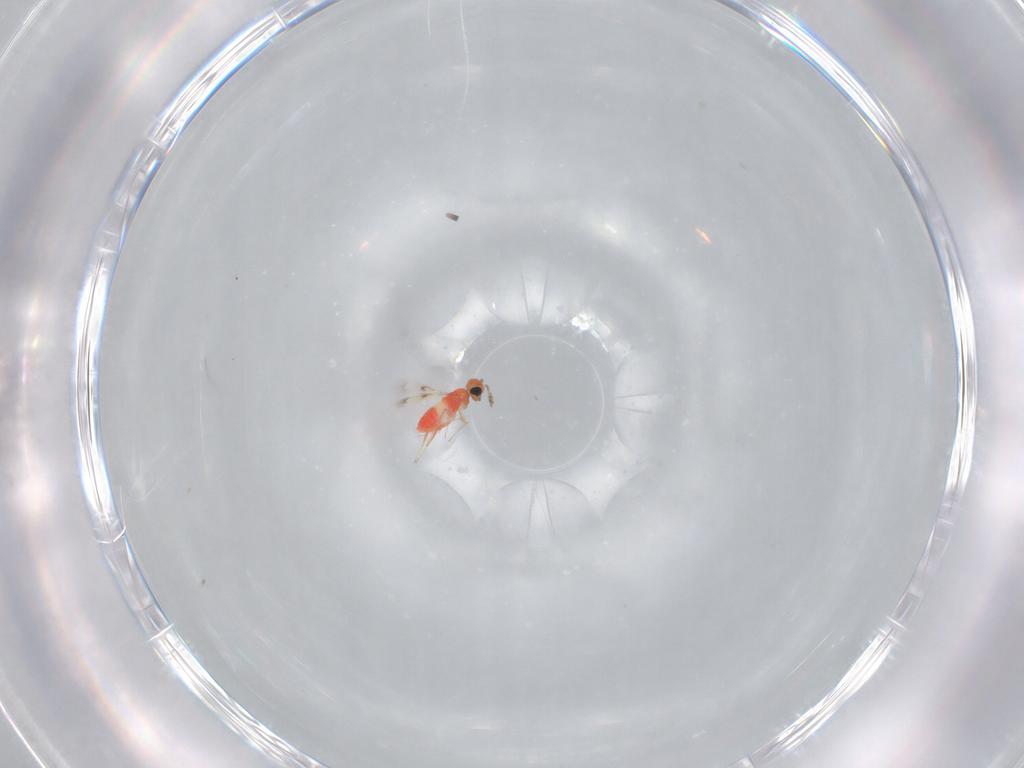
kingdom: Animalia
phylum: Arthropoda
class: Insecta
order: Hymenoptera
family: Trichogrammatidae
